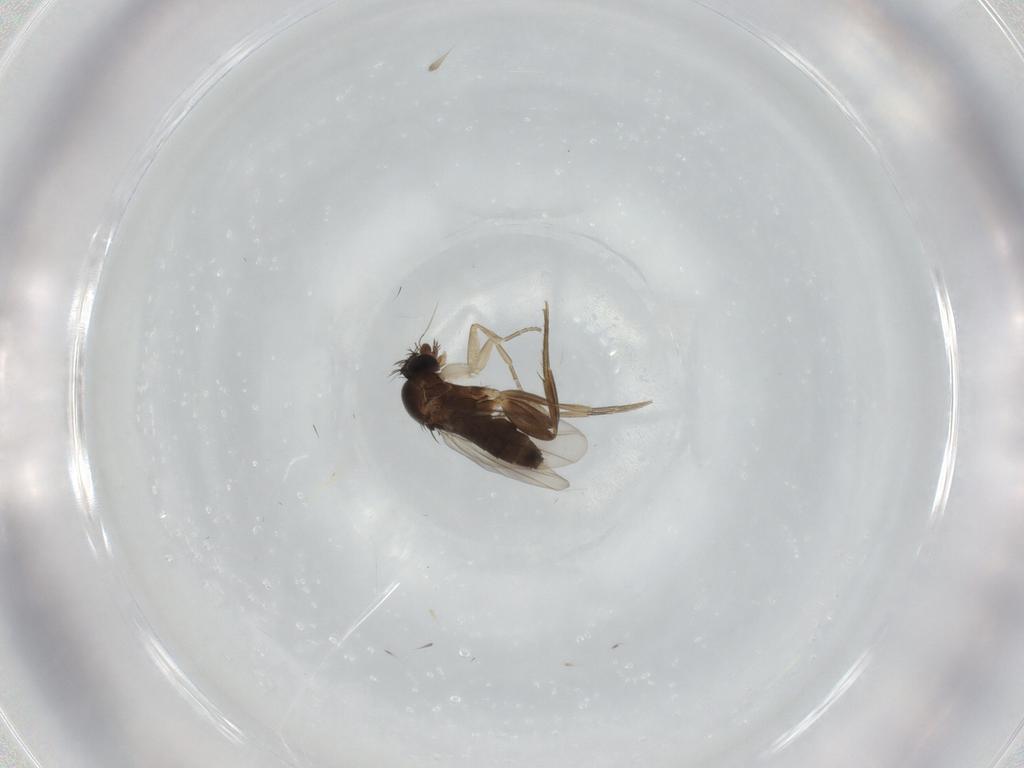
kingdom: Animalia
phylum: Arthropoda
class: Insecta
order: Diptera
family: Phoridae
